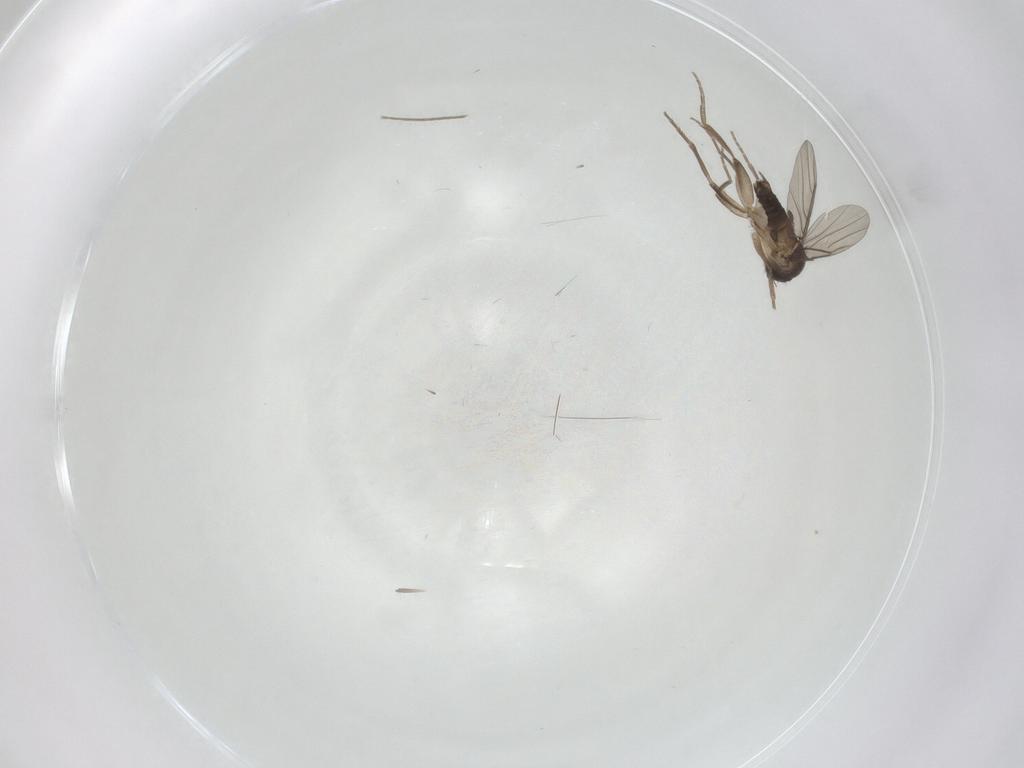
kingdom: Animalia
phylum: Arthropoda
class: Insecta
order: Diptera
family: Chironomidae
